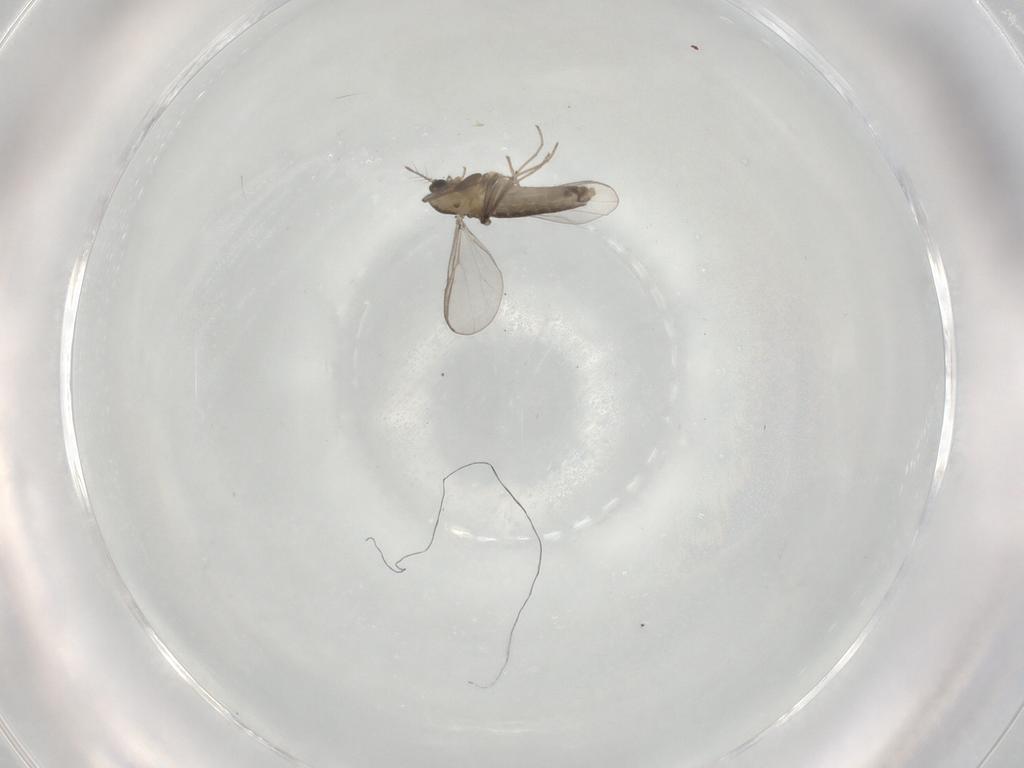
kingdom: Animalia
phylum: Arthropoda
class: Insecta
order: Diptera
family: Chironomidae
